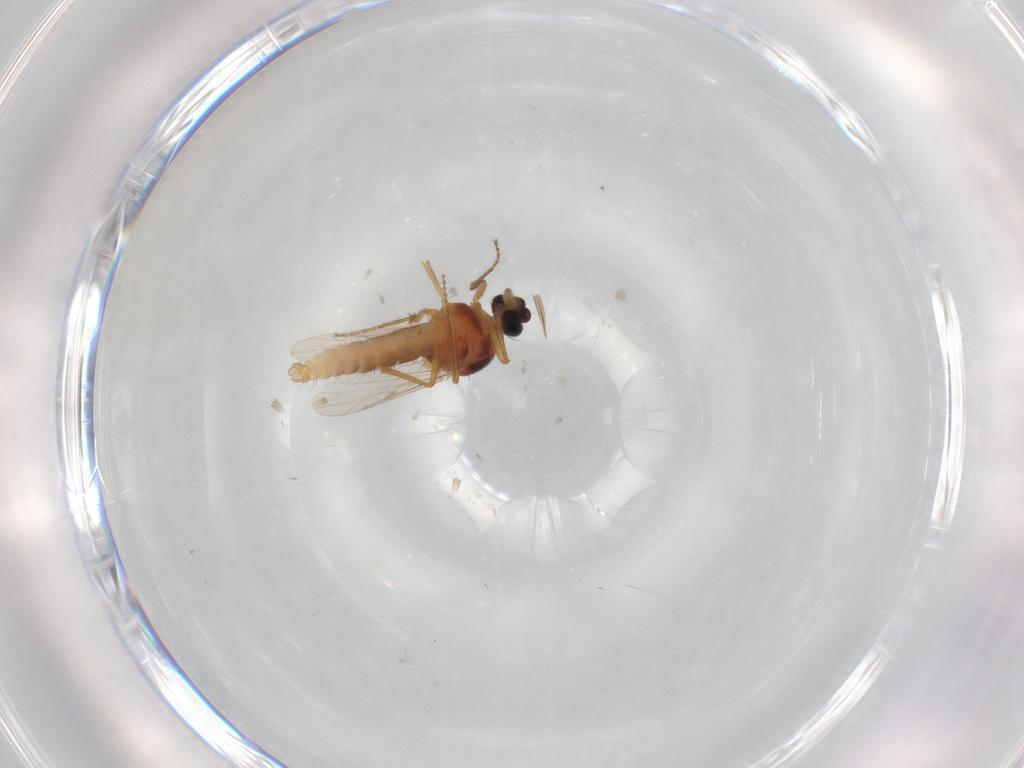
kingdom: Animalia
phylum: Arthropoda
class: Insecta
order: Diptera
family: Cecidomyiidae
